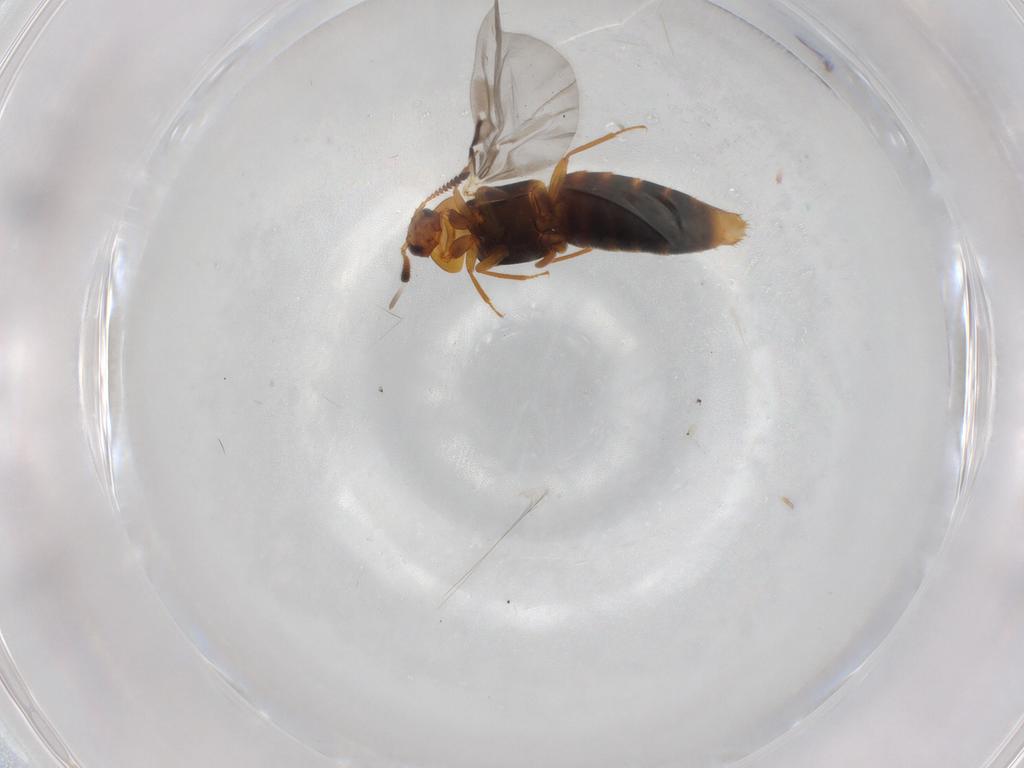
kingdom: Animalia
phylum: Arthropoda
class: Insecta
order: Coleoptera
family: Staphylinidae
